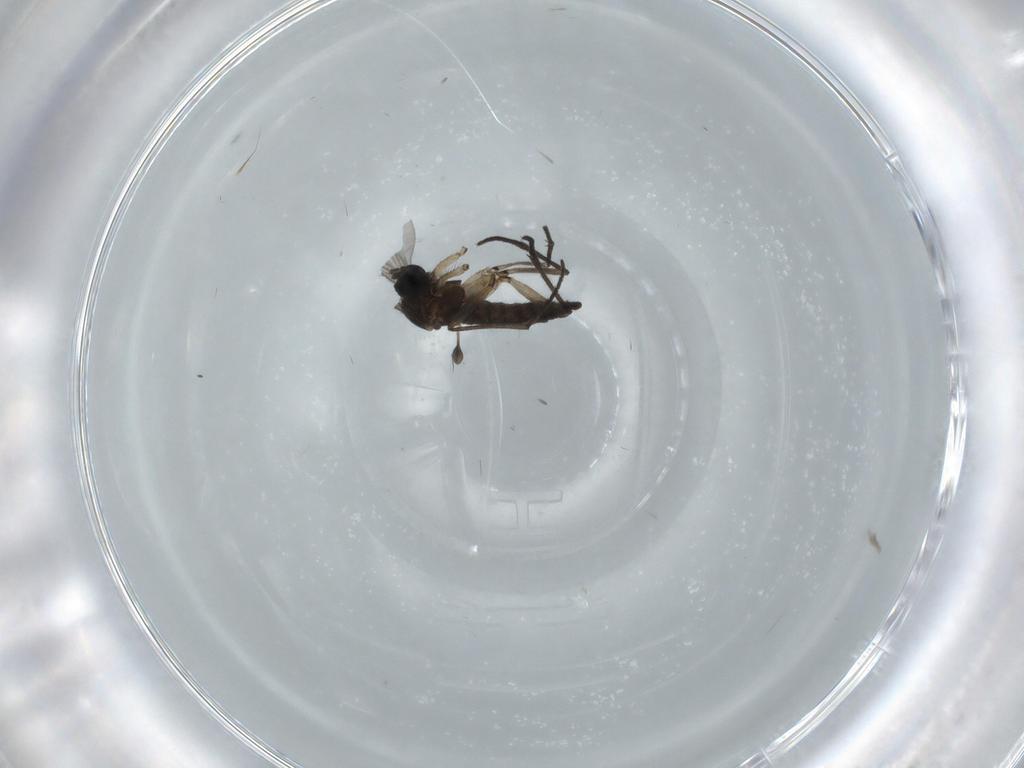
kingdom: Animalia
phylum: Arthropoda
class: Insecta
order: Diptera
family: Sciaridae
